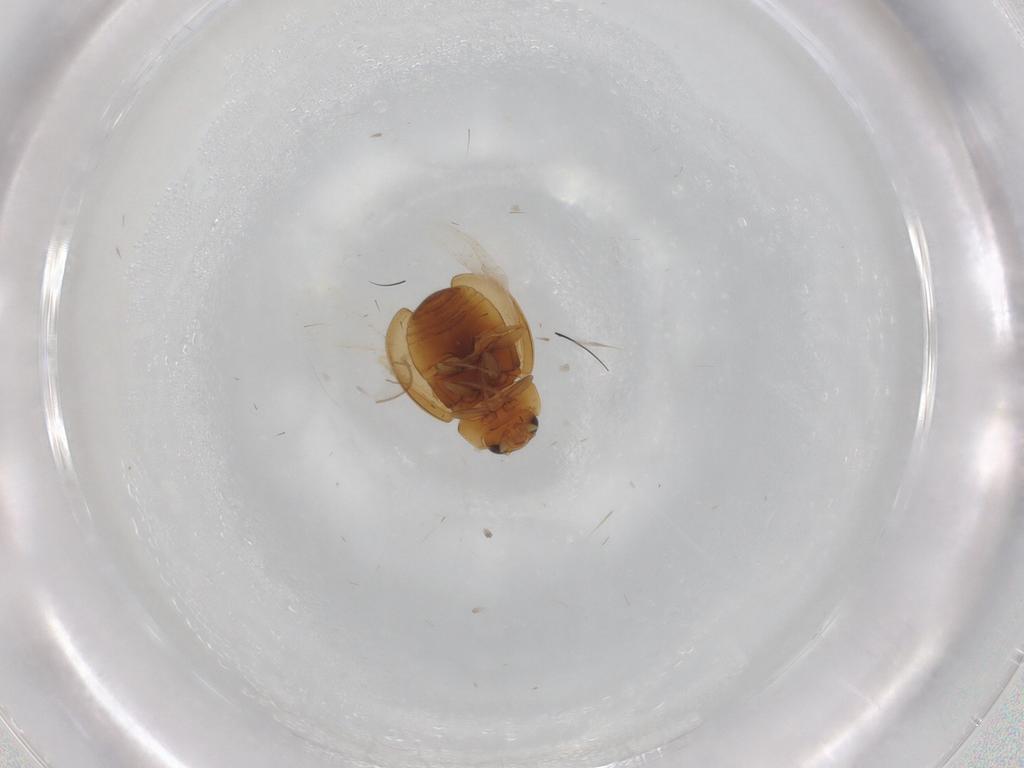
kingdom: Animalia
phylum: Arthropoda
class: Insecta
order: Coleoptera
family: Coccinellidae
